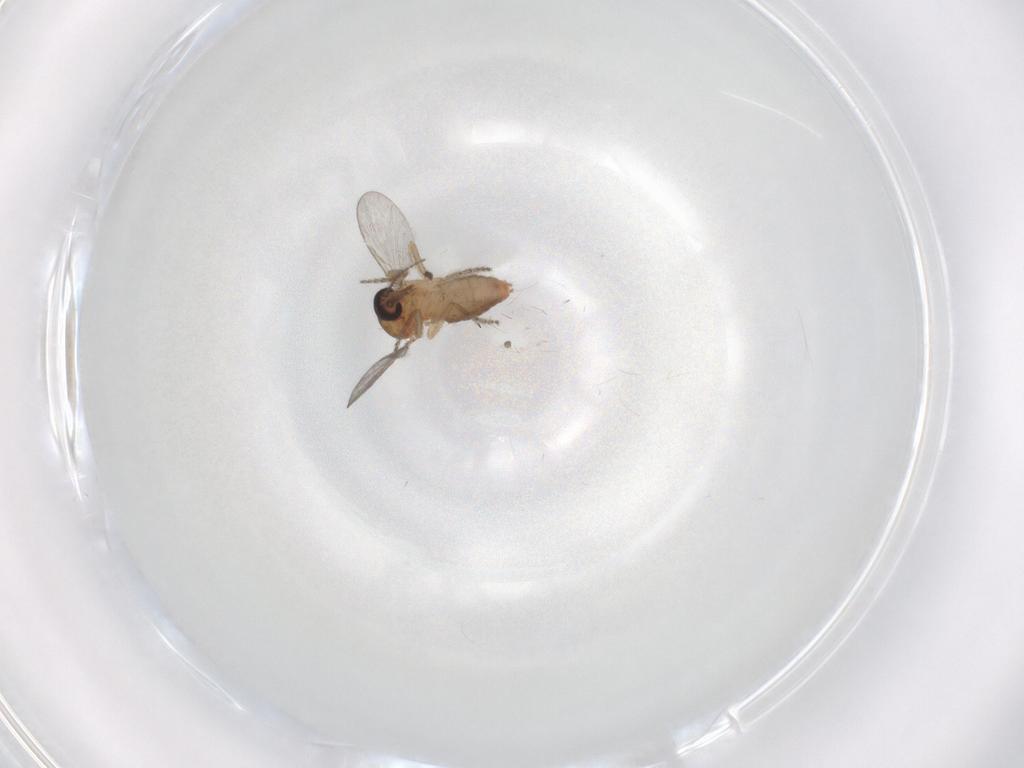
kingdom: Animalia
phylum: Arthropoda
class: Insecta
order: Diptera
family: Ceratopogonidae
